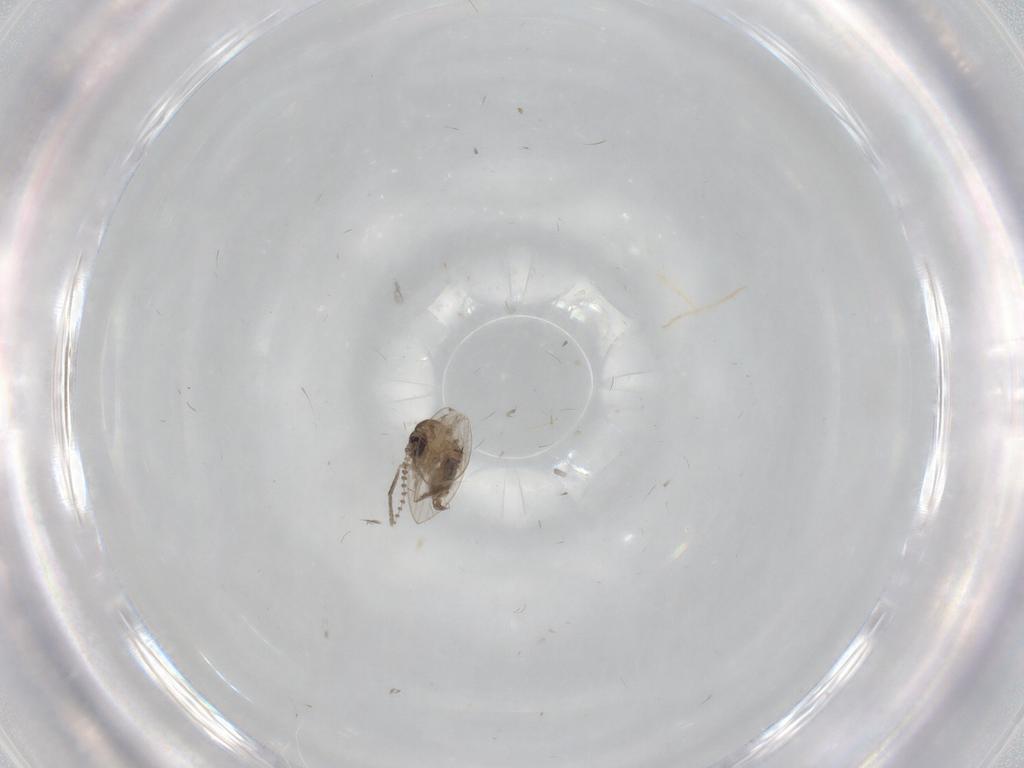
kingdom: Animalia
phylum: Arthropoda
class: Insecta
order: Diptera
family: Psychodidae
